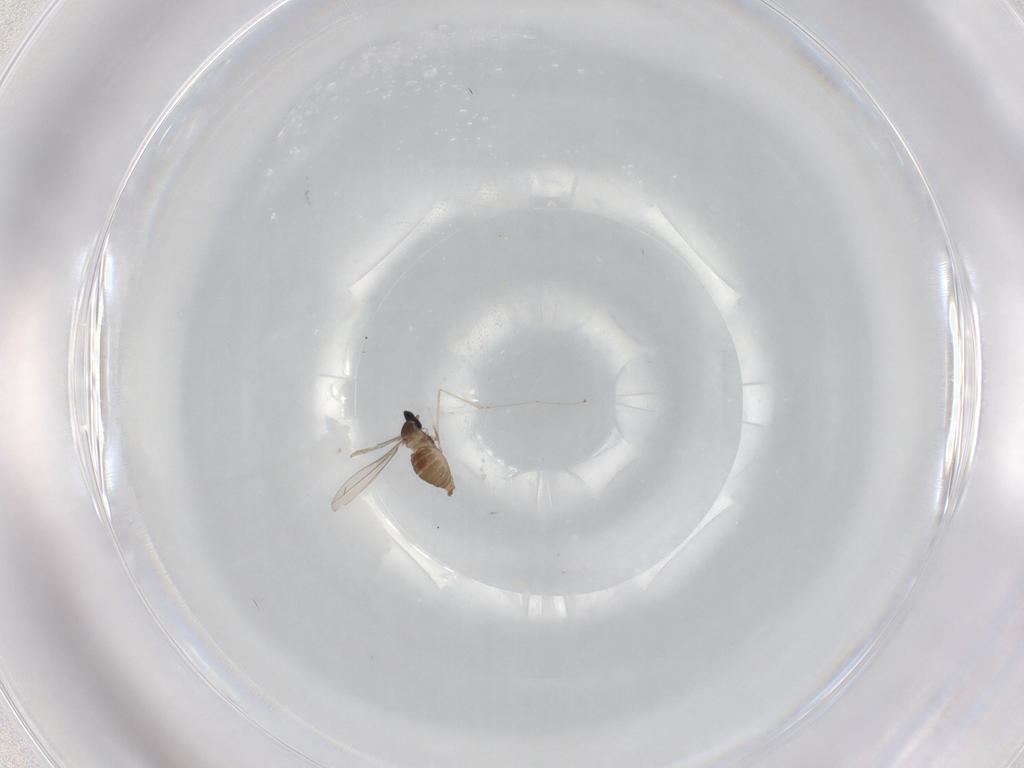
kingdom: Animalia
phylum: Arthropoda
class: Insecta
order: Diptera
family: Cecidomyiidae
